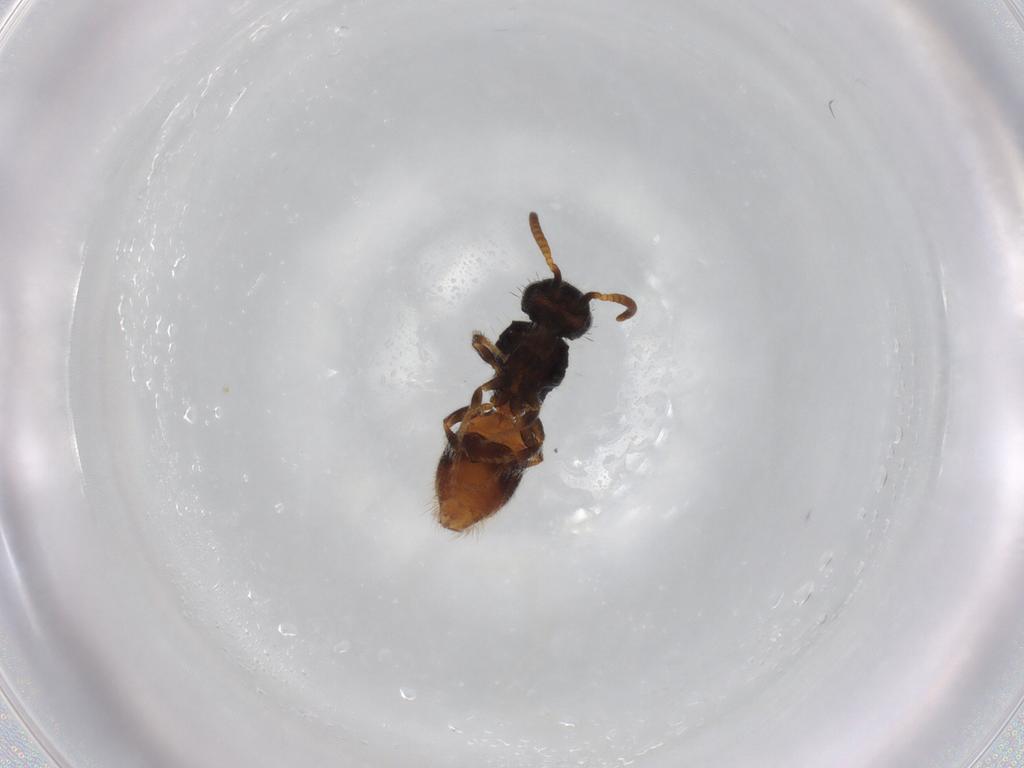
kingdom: Animalia
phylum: Arthropoda
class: Insecta
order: Hymenoptera
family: Formicidae
